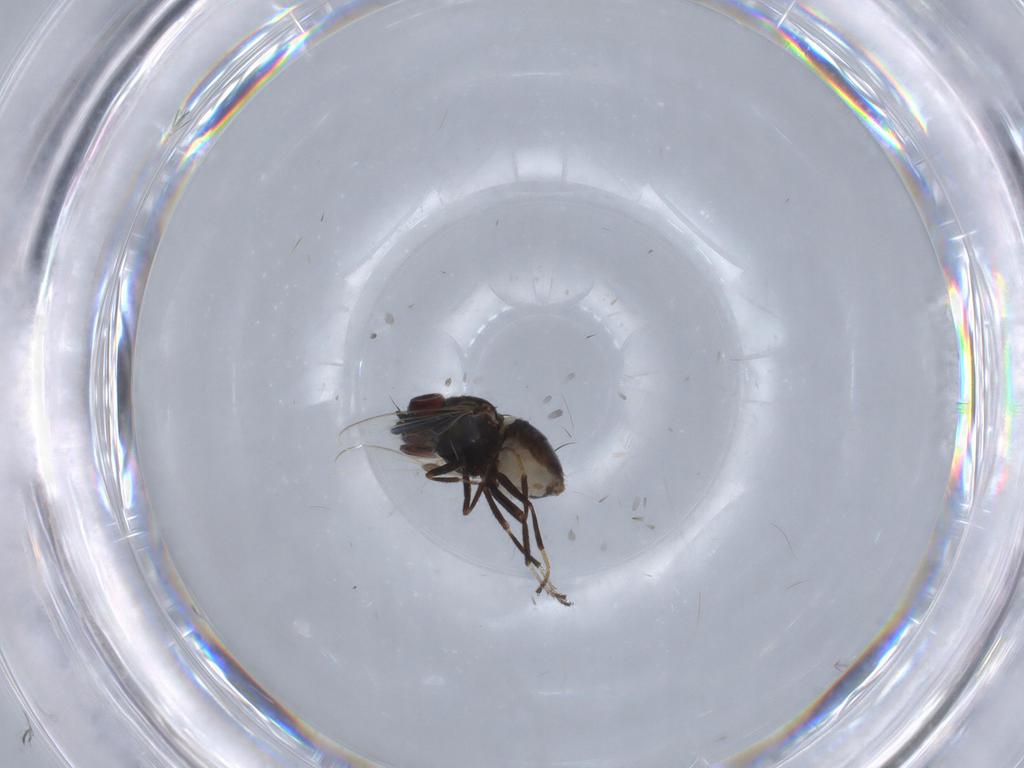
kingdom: Animalia
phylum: Arthropoda
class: Insecta
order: Diptera
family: Ephydridae
